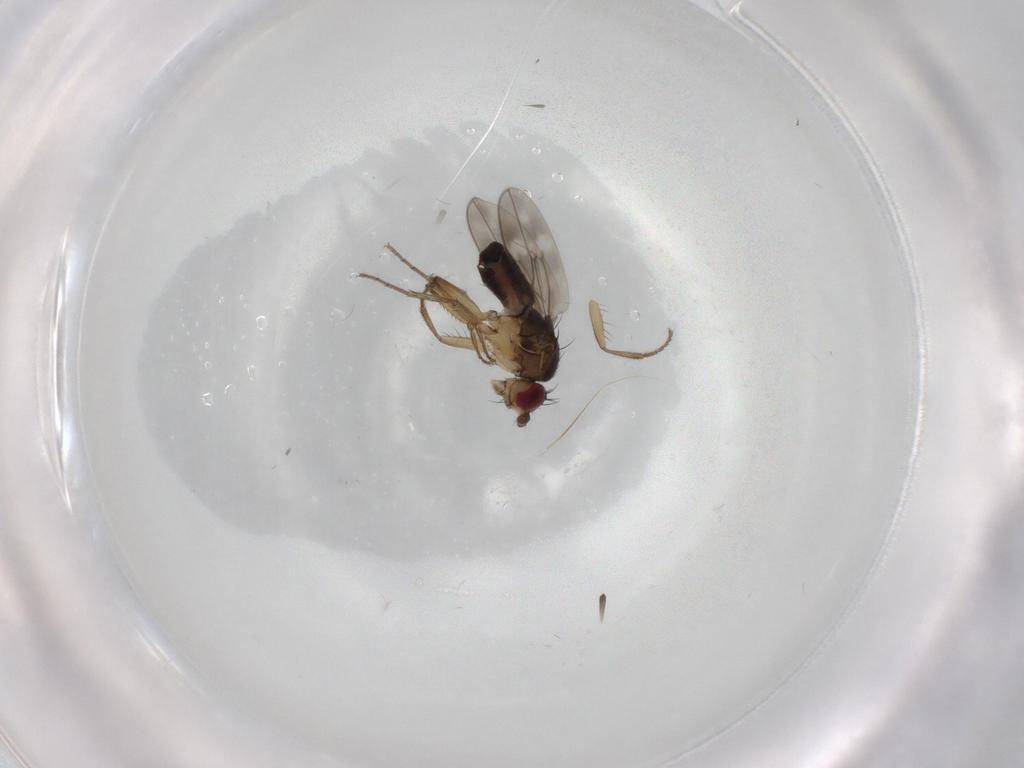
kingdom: Animalia
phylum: Arthropoda
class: Insecta
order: Diptera
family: Sphaeroceridae
